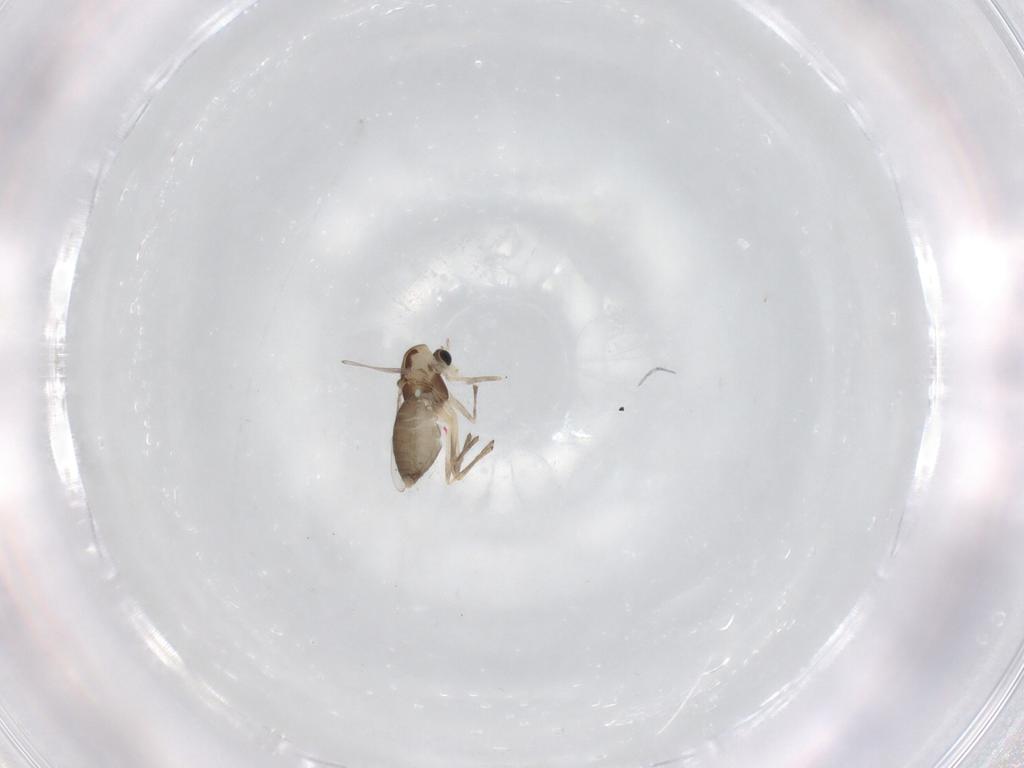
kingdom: Animalia
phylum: Arthropoda
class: Insecta
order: Diptera
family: Chironomidae
